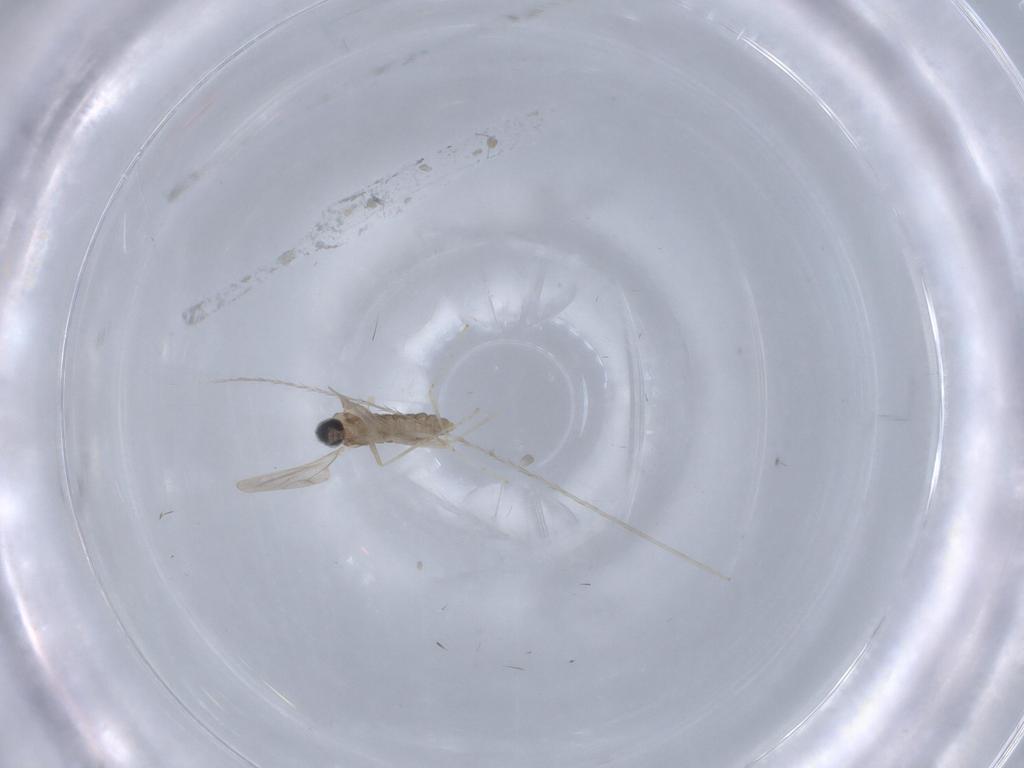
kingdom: Animalia
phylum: Arthropoda
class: Insecta
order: Diptera
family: Cecidomyiidae
